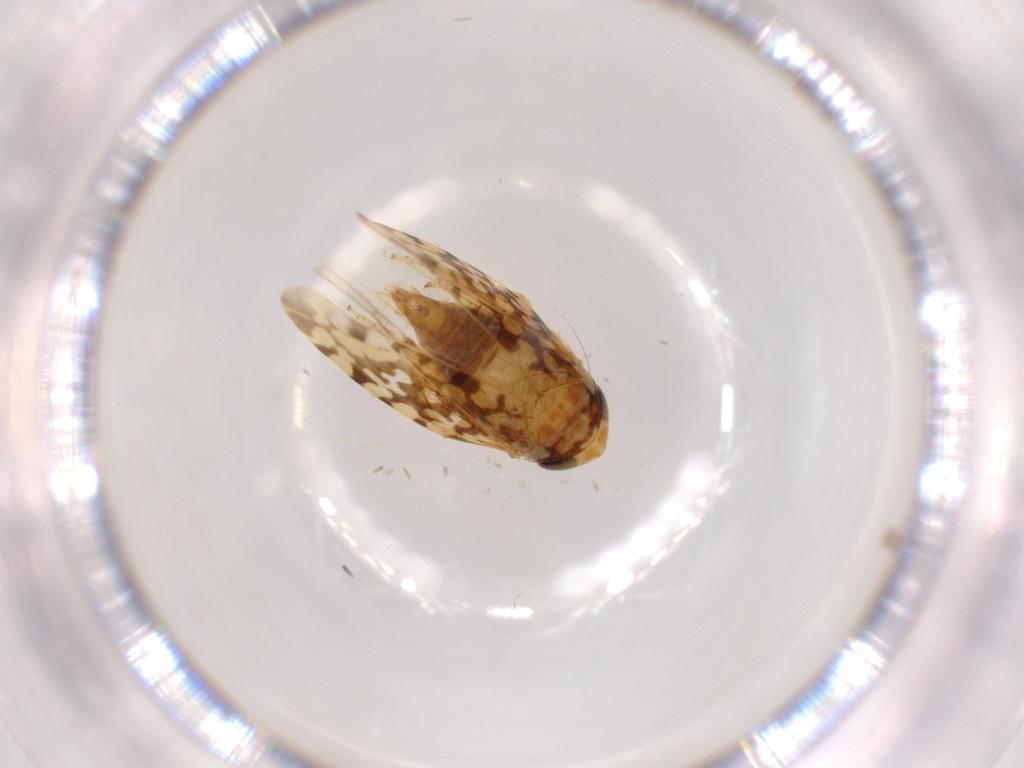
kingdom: Animalia
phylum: Arthropoda
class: Insecta
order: Hemiptera
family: Cicadellidae
